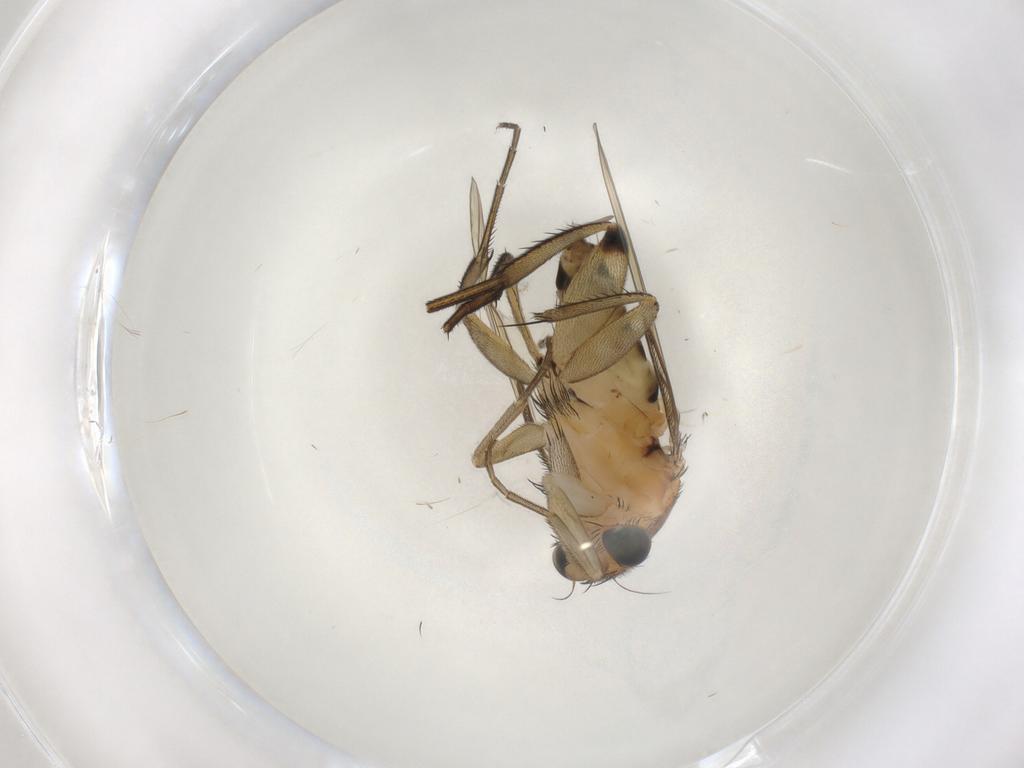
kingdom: Animalia
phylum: Arthropoda
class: Insecta
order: Diptera
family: Phoridae
